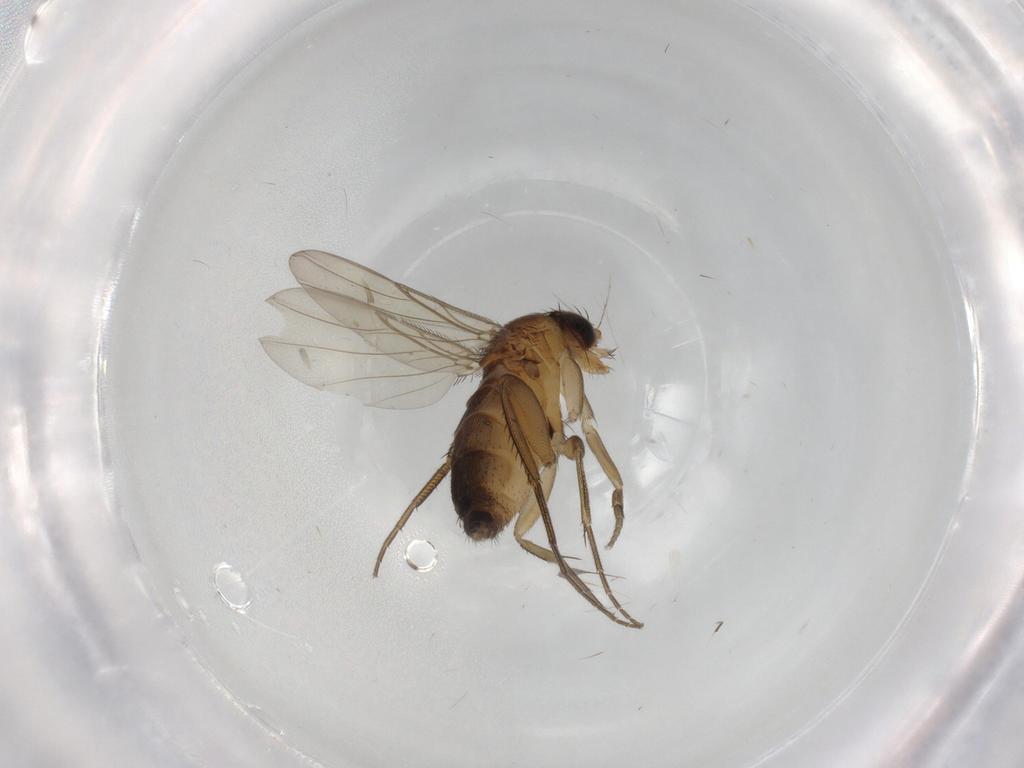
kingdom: Animalia
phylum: Arthropoda
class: Insecta
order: Diptera
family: Phoridae
